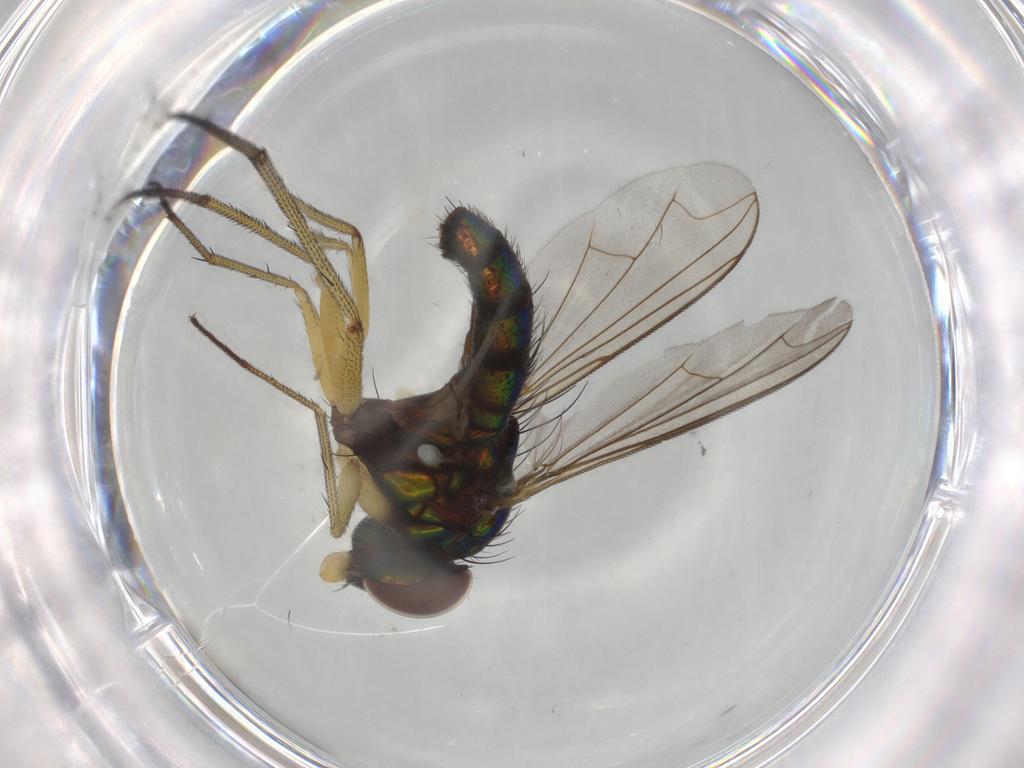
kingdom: Animalia
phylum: Arthropoda
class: Insecta
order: Diptera
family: Dolichopodidae
